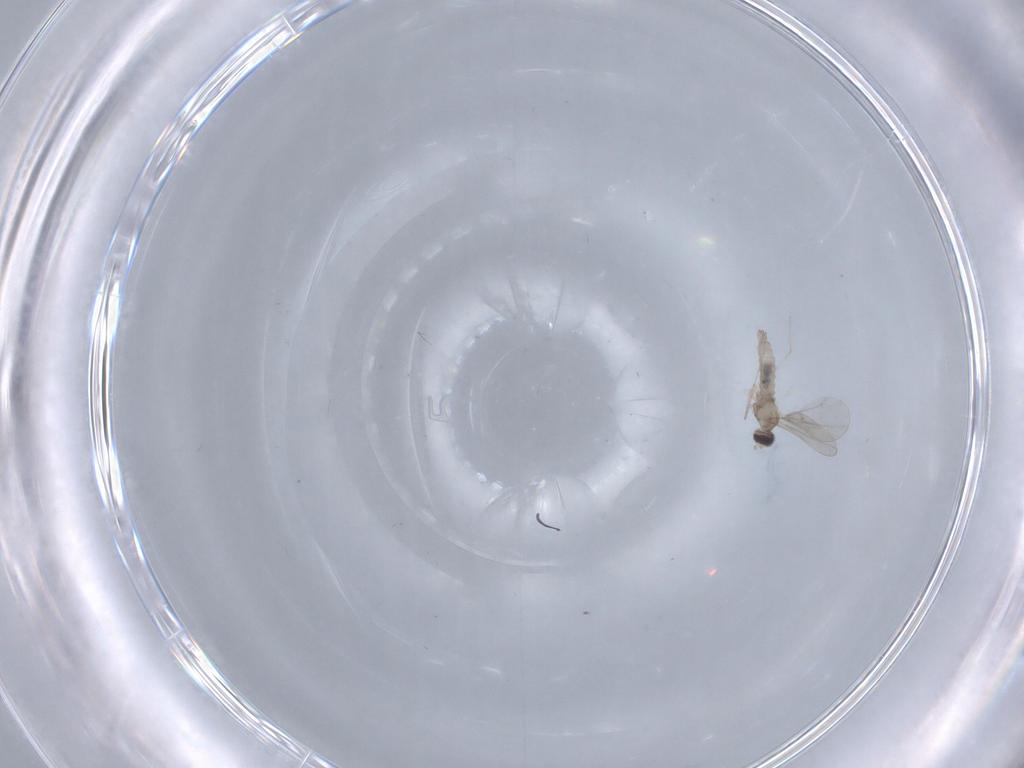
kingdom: Animalia
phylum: Arthropoda
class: Insecta
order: Diptera
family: Cecidomyiidae
